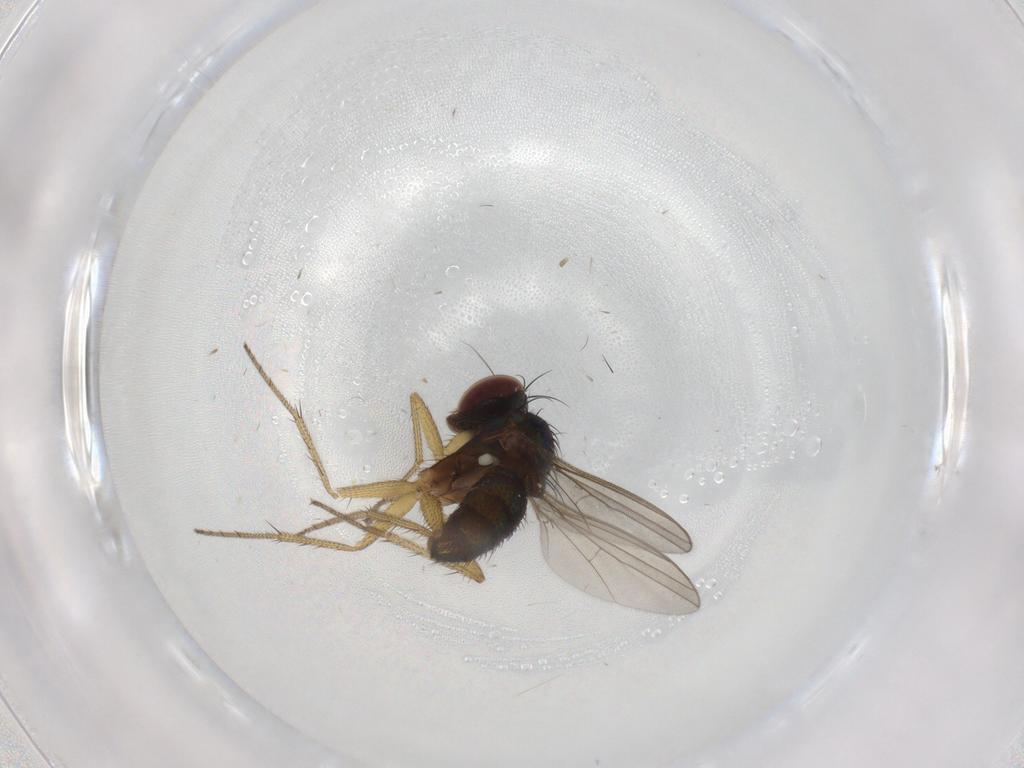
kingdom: Animalia
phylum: Arthropoda
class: Insecta
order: Diptera
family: Dolichopodidae
